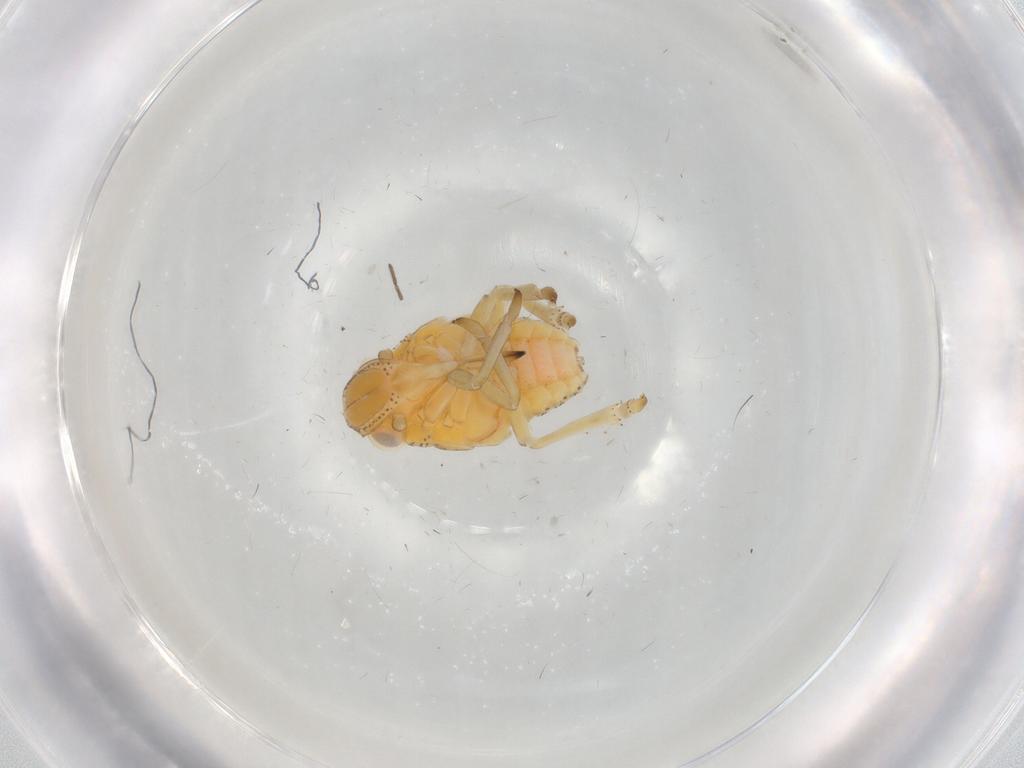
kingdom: Animalia
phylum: Arthropoda
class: Insecta
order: Hemiptera
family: Tropiduchidae
